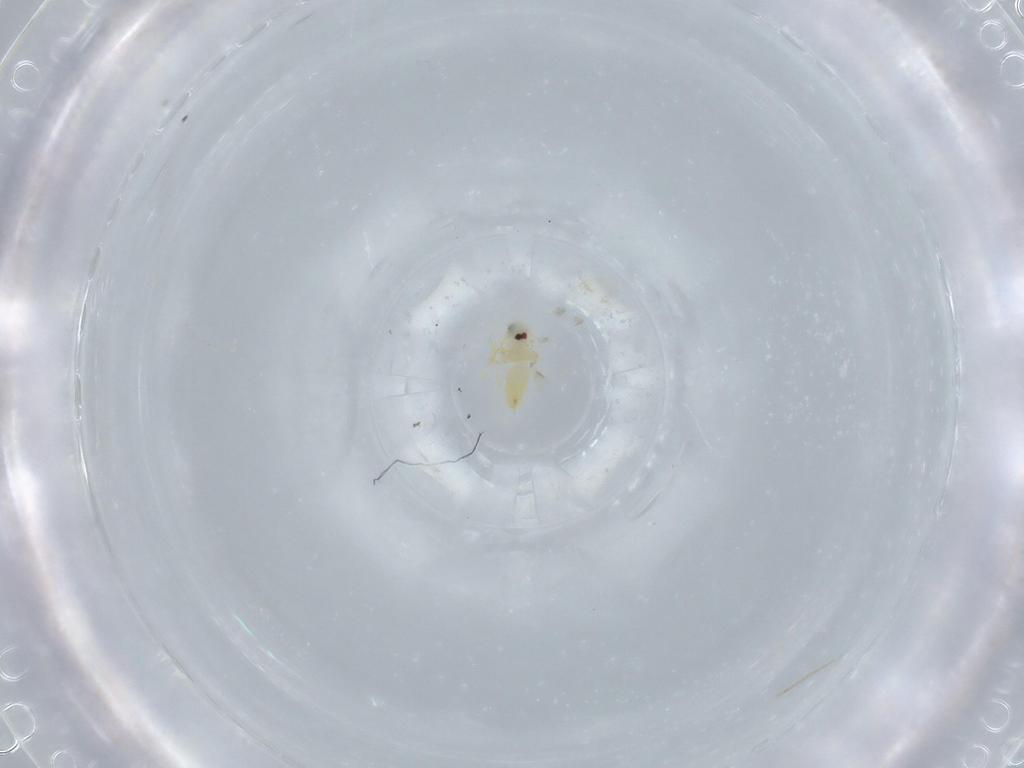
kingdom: Animalia
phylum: Arthropoda
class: Insecta
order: Hemiptera
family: Aleyrodidae
